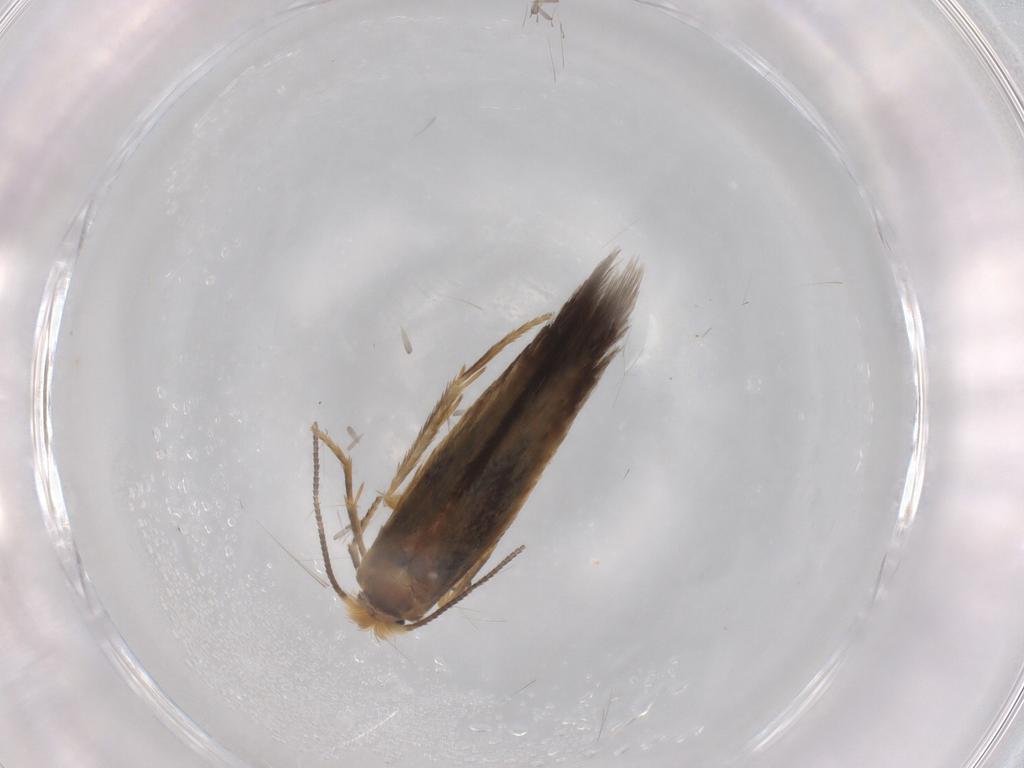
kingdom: Animalia
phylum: Arthropoda
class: Insecta
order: Lepidoptera
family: Nepticulidae
